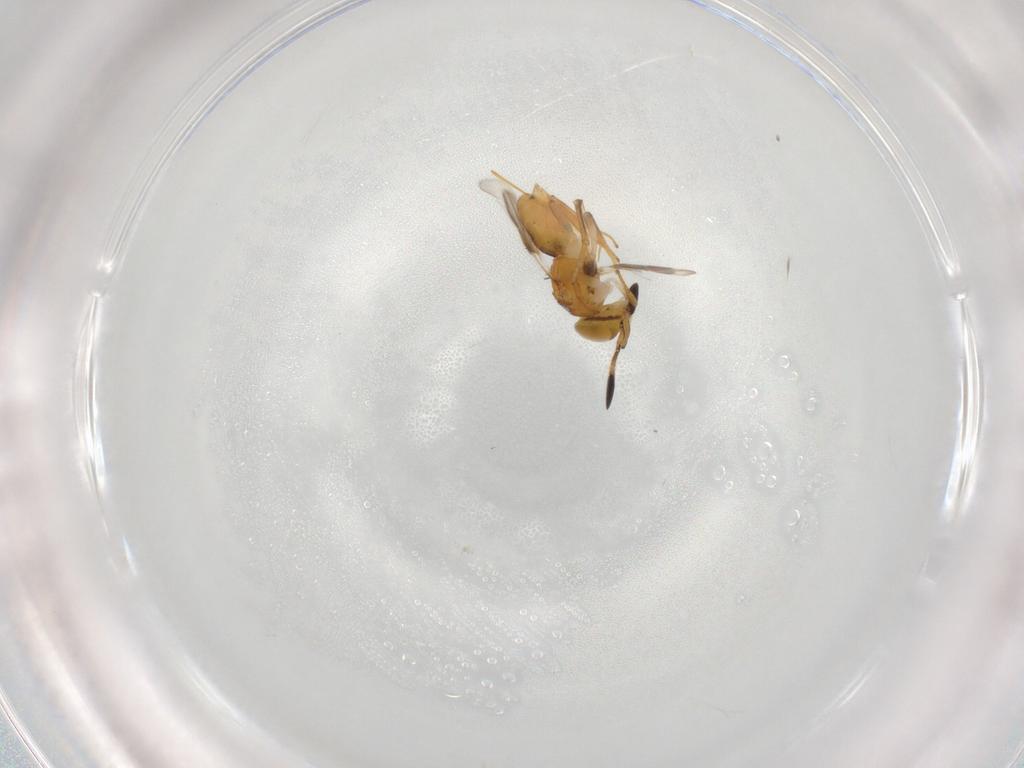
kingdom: Animalia
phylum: Arthropoda
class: Insecta
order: Hymenoptera
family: Encyrtidae
